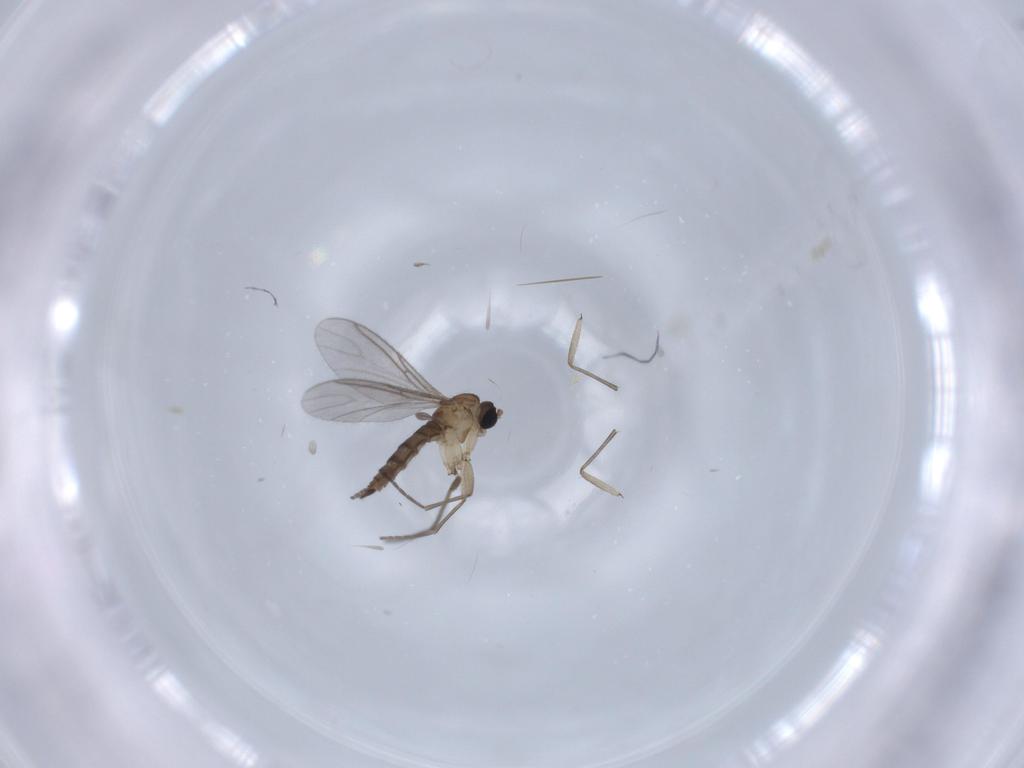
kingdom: Animalia
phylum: Arthropoda
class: Insecta
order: Diptera
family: Sciaridae
